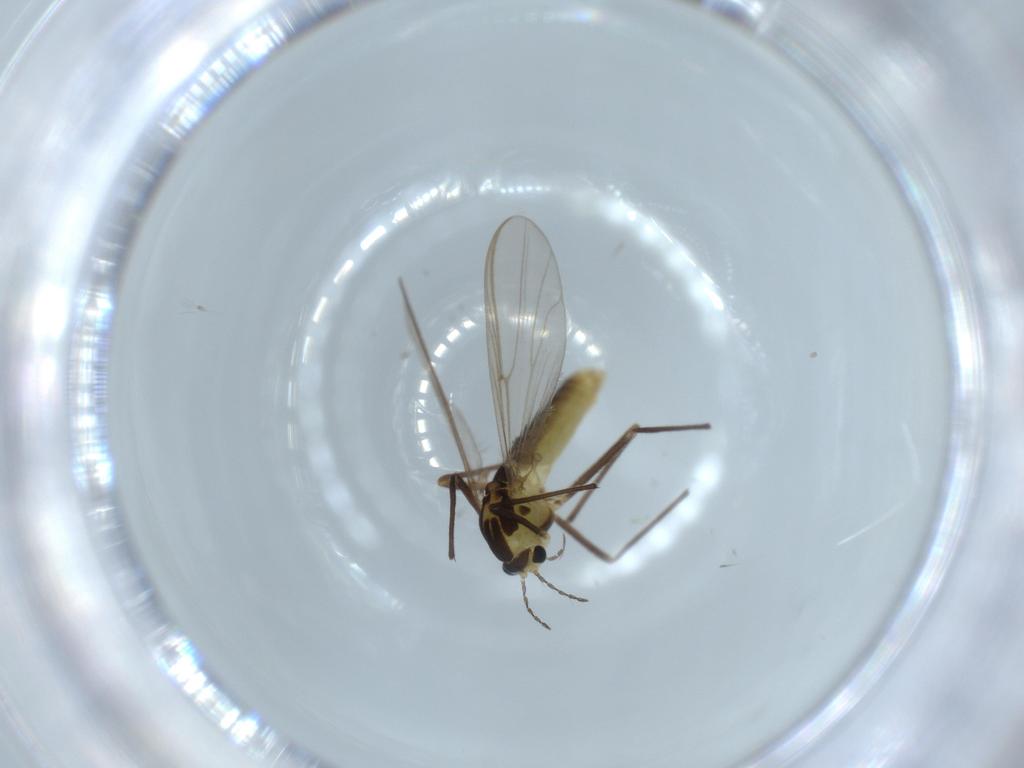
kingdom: Animalia
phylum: Arthropoda
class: Insecta
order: Diptera
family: Chironomidae
